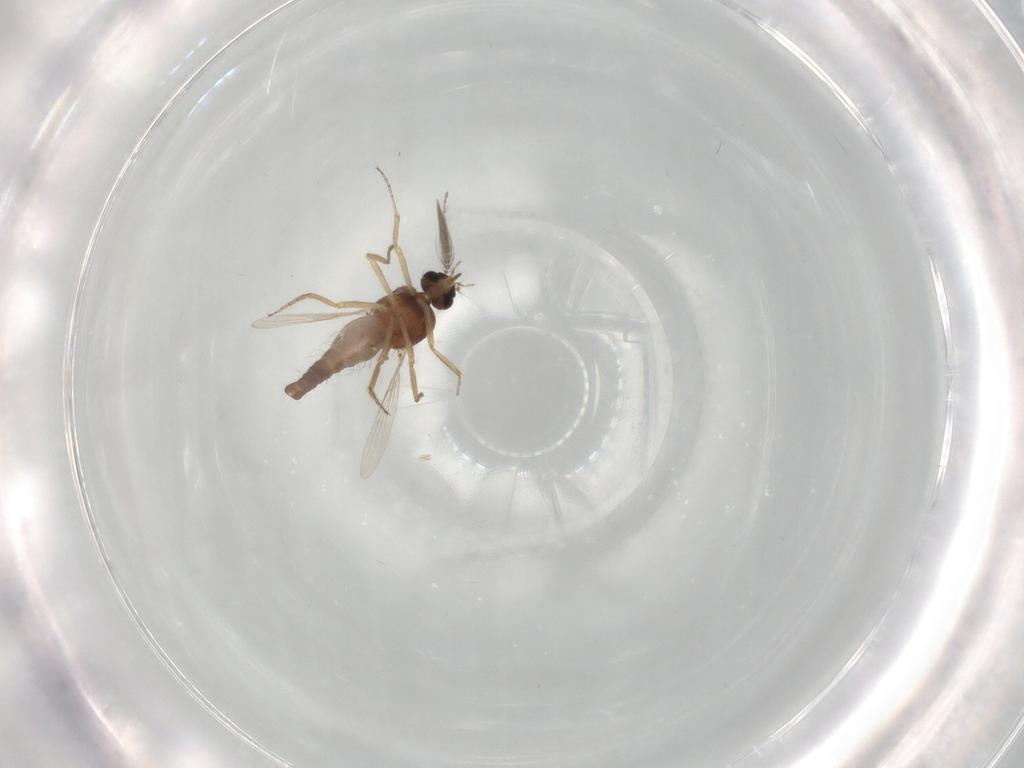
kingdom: Animalia
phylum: Arthropoda
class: Insecta
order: Diptera
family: Ceratopogonidae
